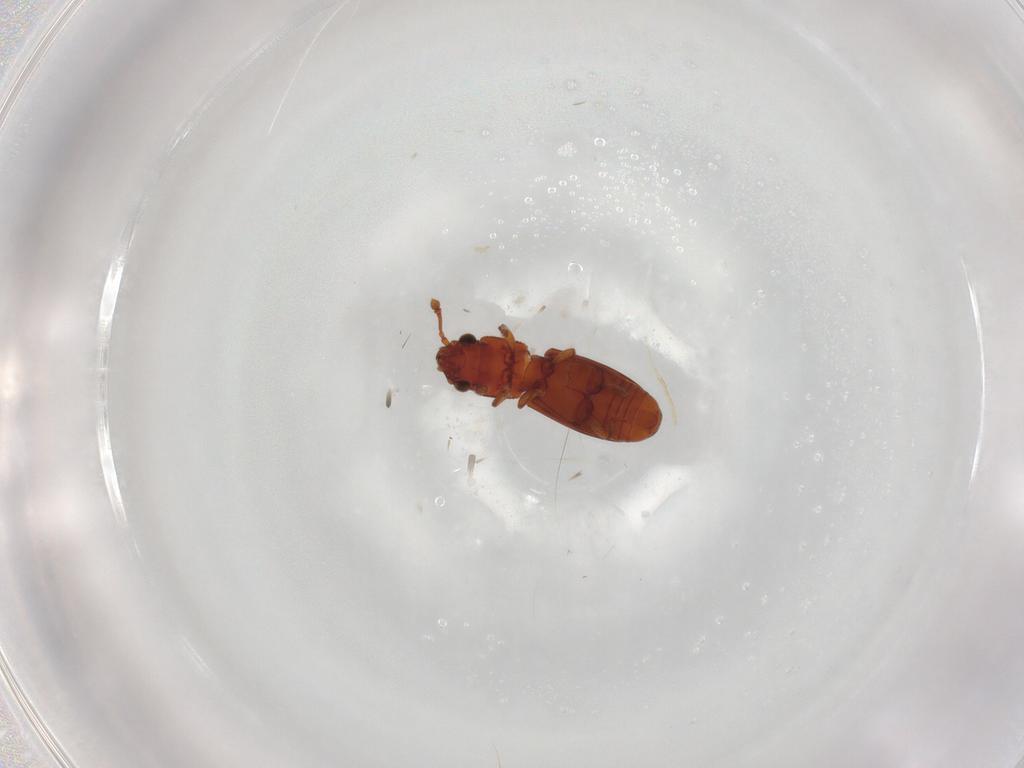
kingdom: Animalia
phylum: Arthropoda
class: Insecta
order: Coleoptera
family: Monotomidae
